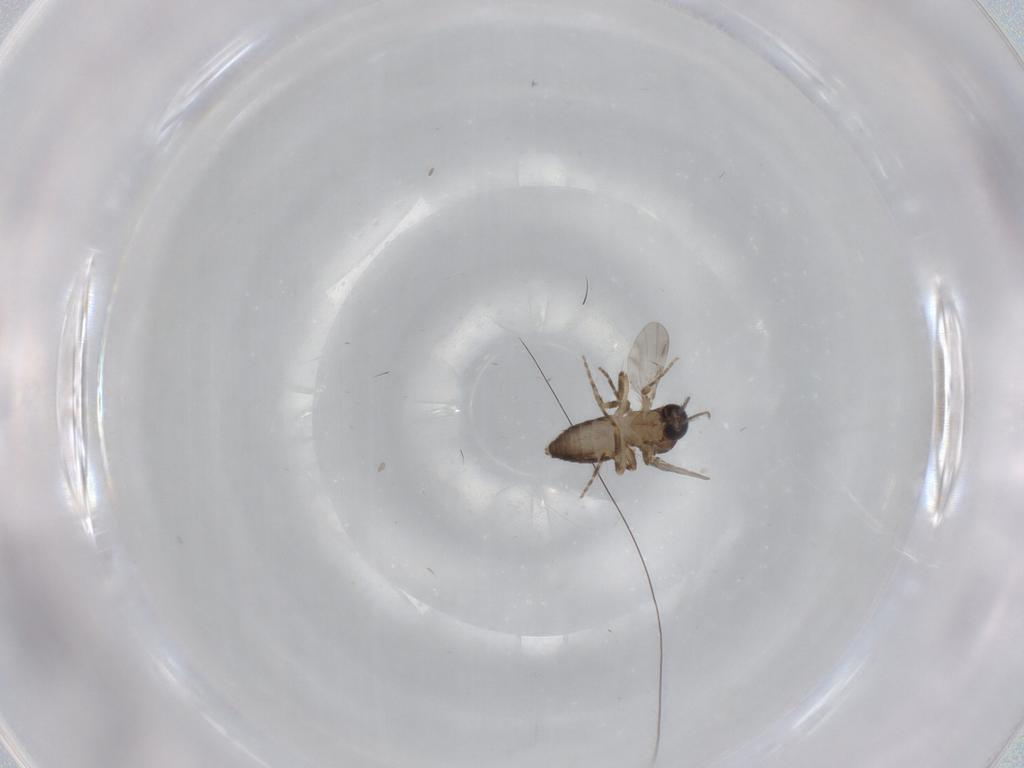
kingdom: Animalia
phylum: Arthropoda
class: Insecta
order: Diptera
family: Ceratopogonidae
